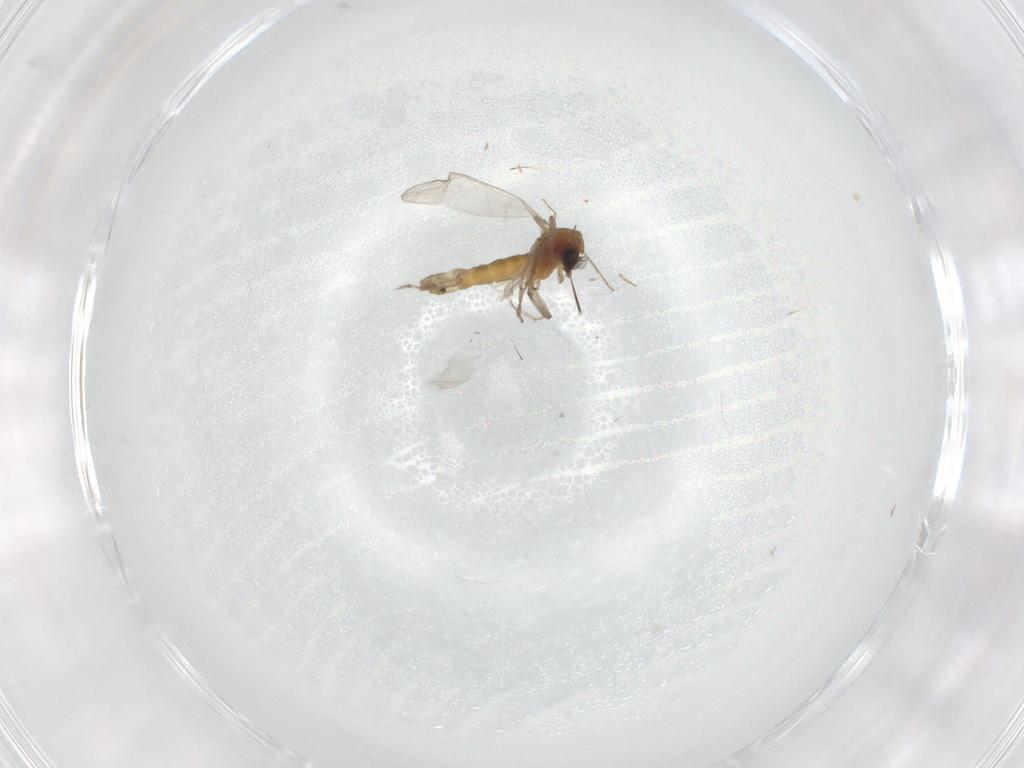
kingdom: Animalia
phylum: Arthropoda
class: Insecta
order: Diptera
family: Chironomidae
